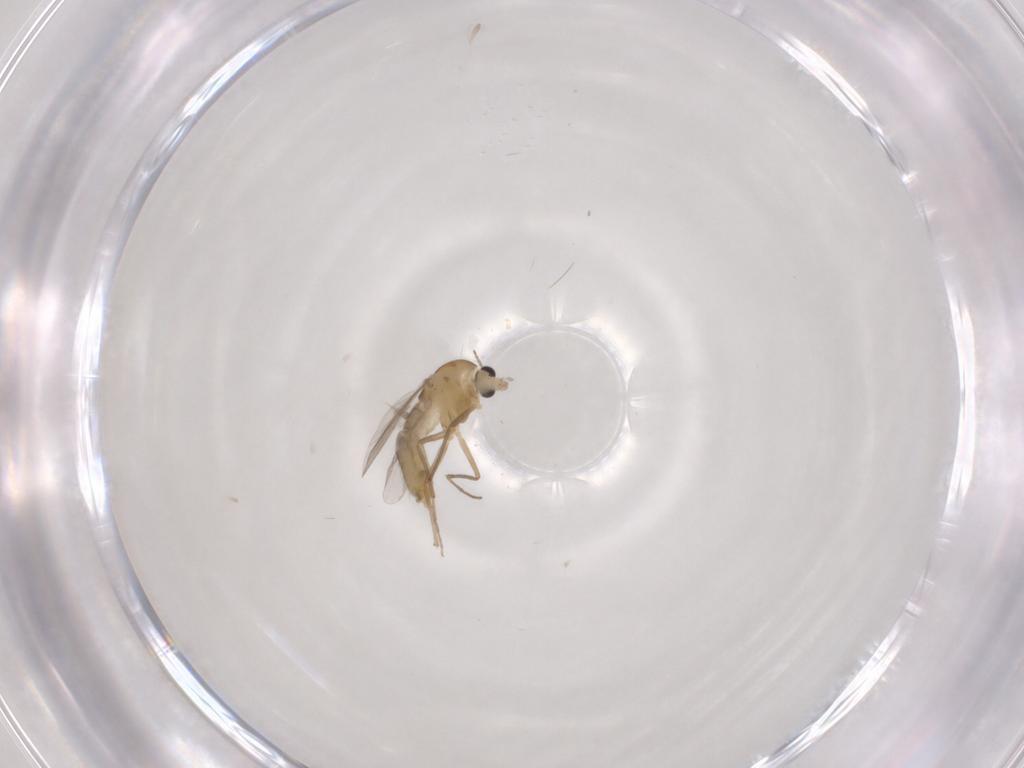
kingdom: Animalia
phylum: Arthropoda
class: Insecta
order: Diptera
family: Chironomidae
